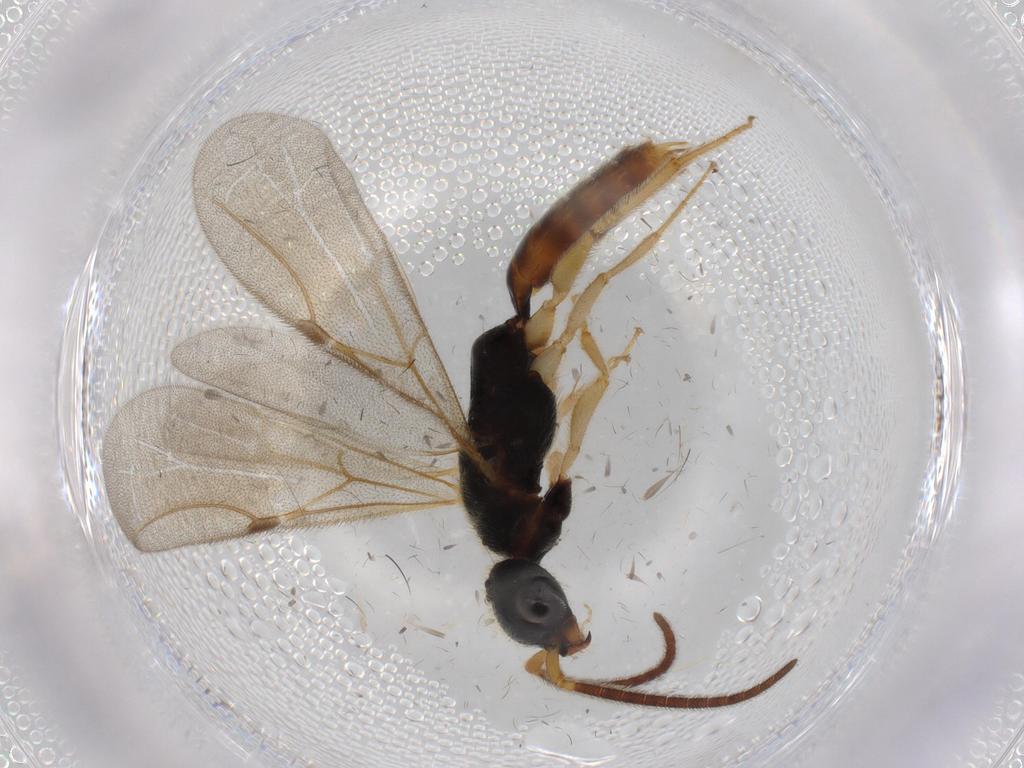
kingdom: Animalia
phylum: Arthropoda
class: Insecta
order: Hymenoptera
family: Bethylidae
